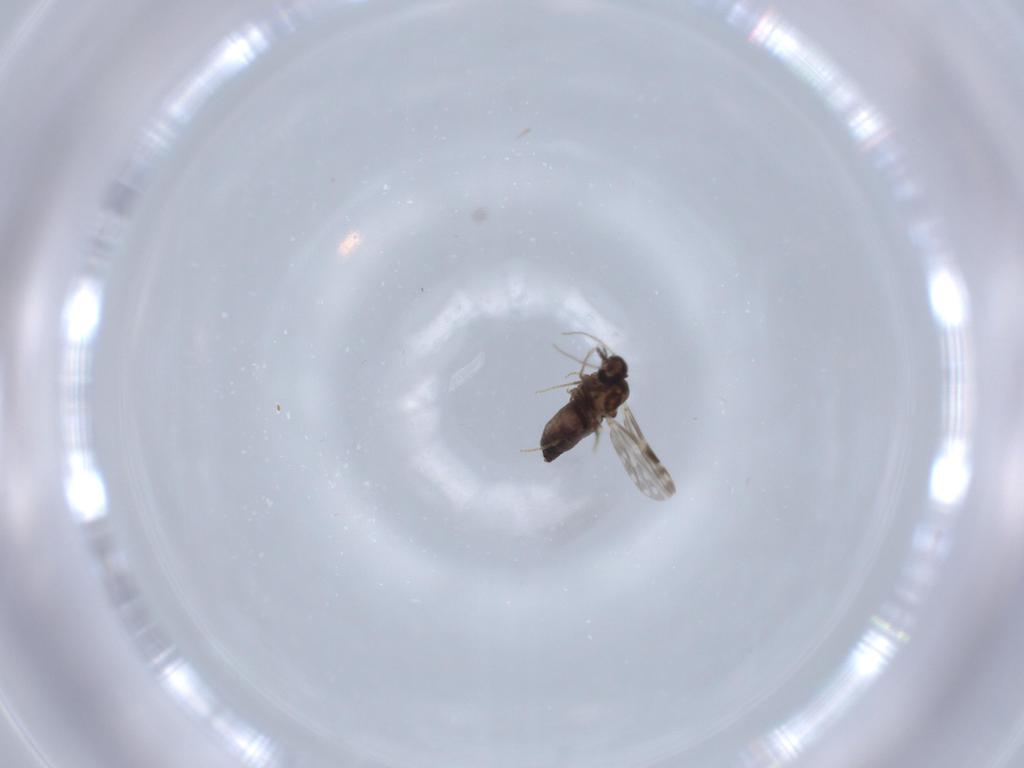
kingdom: Animalia
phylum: Arthropoda
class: Insecta
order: Diptera
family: Ceratopogonidae
